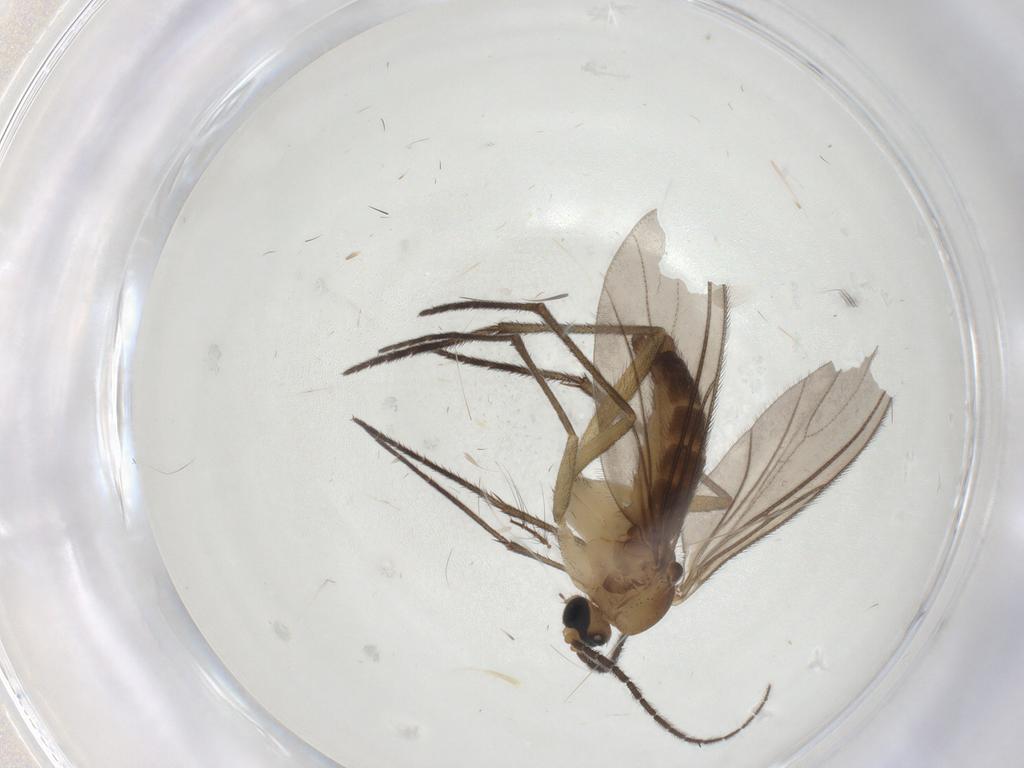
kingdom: Animalia
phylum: Arthropoda
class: Insecta
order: Diptera
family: Sciaridae
